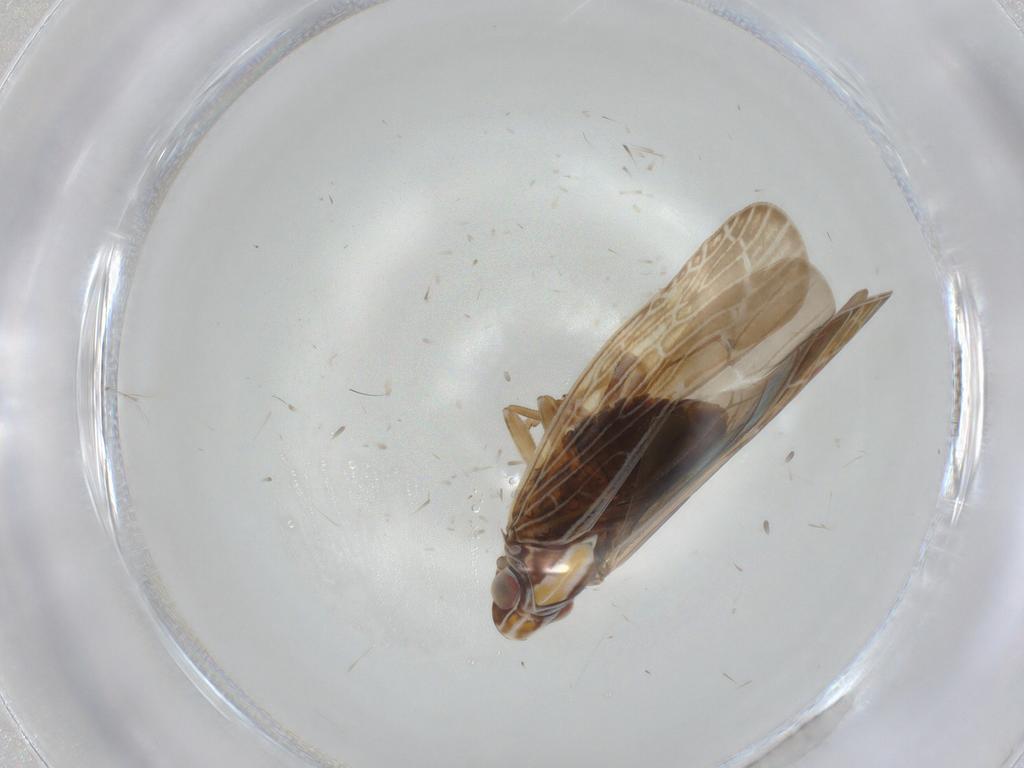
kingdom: Animalia
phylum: Arthropoda
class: Insecta
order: Hemiptera
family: Achilidae
